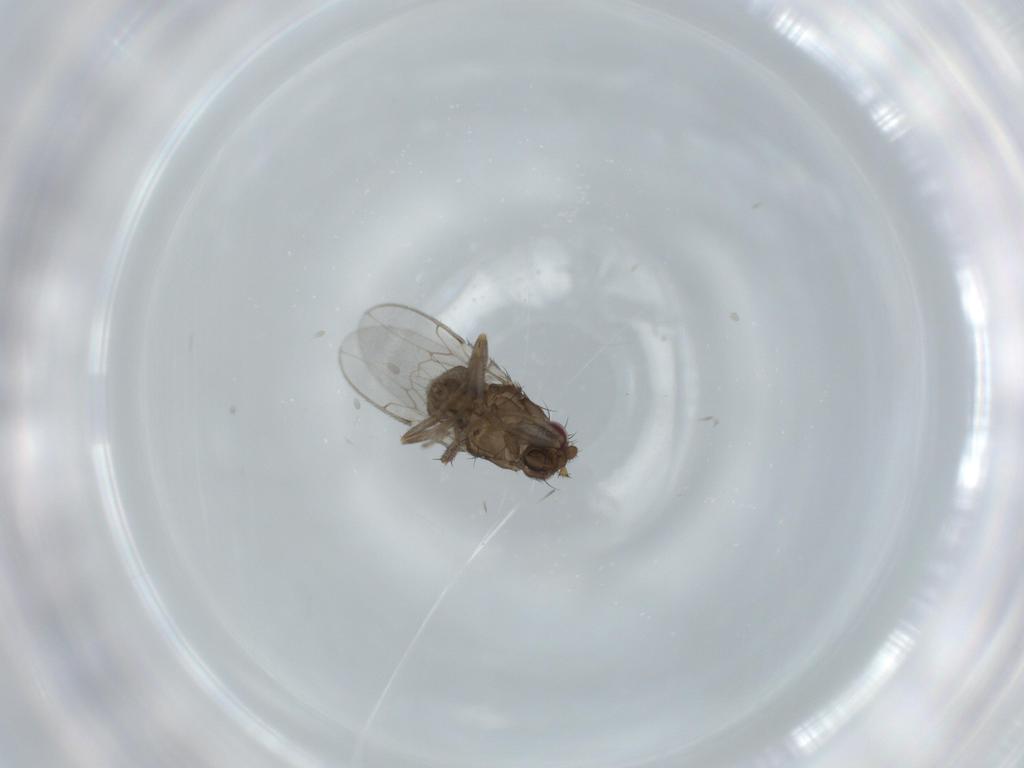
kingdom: Animalia
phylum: Arthropoda
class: Insecta
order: Diptera
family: Sphaeroceridae
